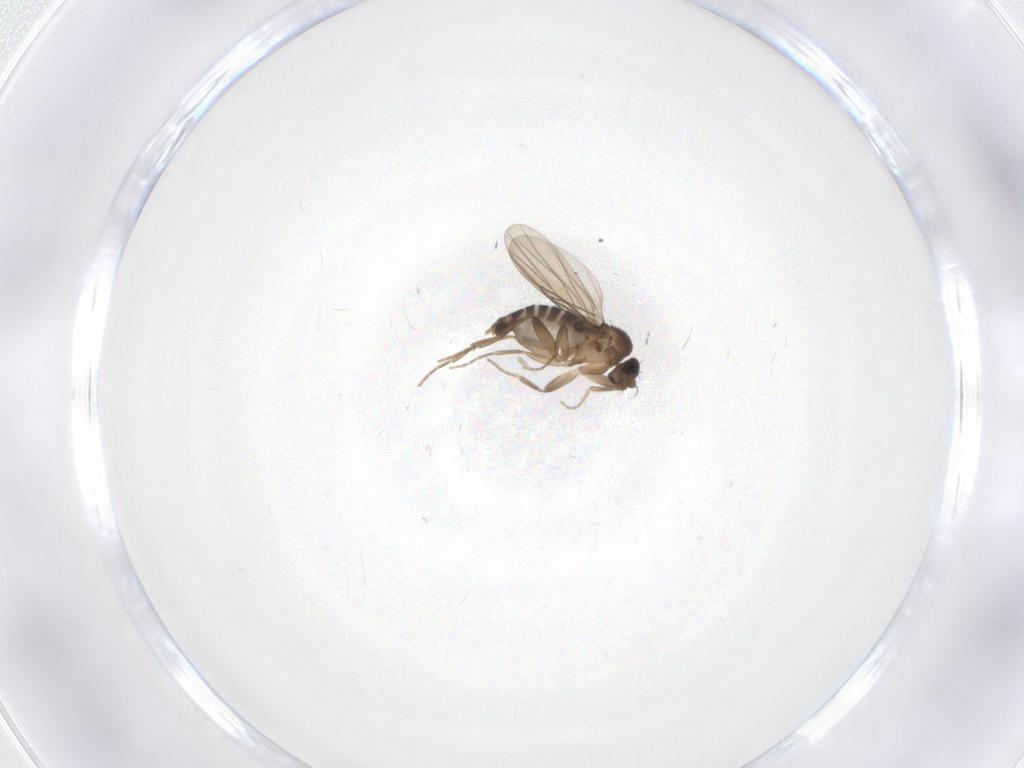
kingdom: Animalia
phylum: Arthropoda
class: Insecta
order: Diptera
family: Phoridae
